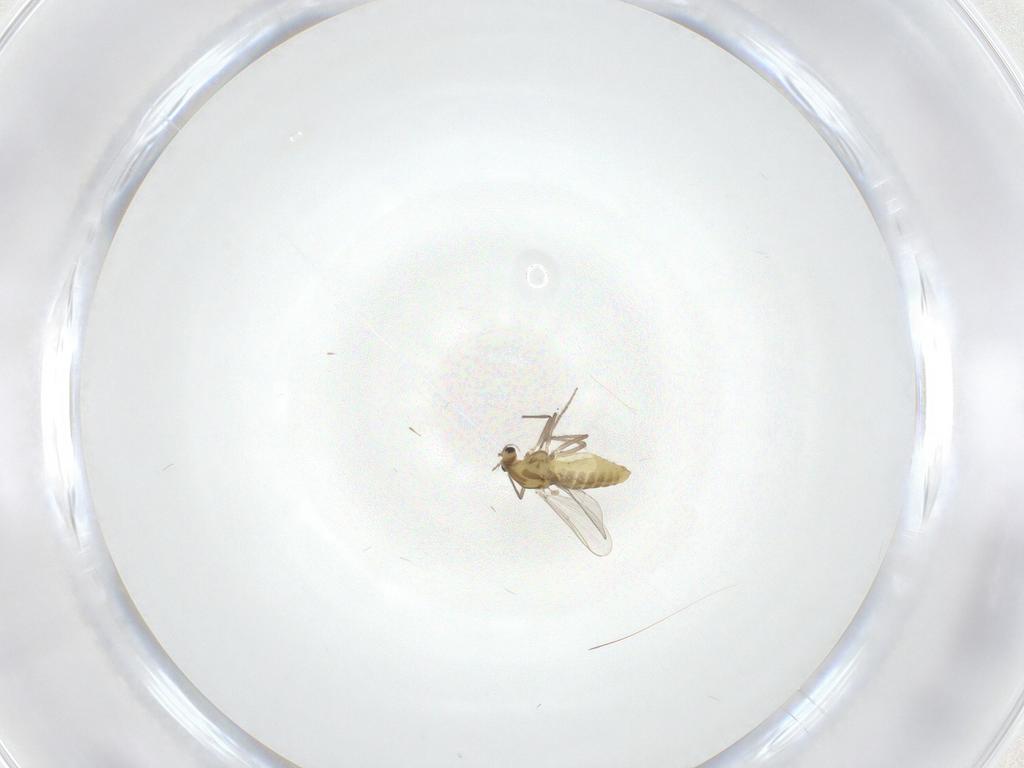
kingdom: Animalia
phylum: Arthropoda
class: Insecta
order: Diptera
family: Chironomidae
